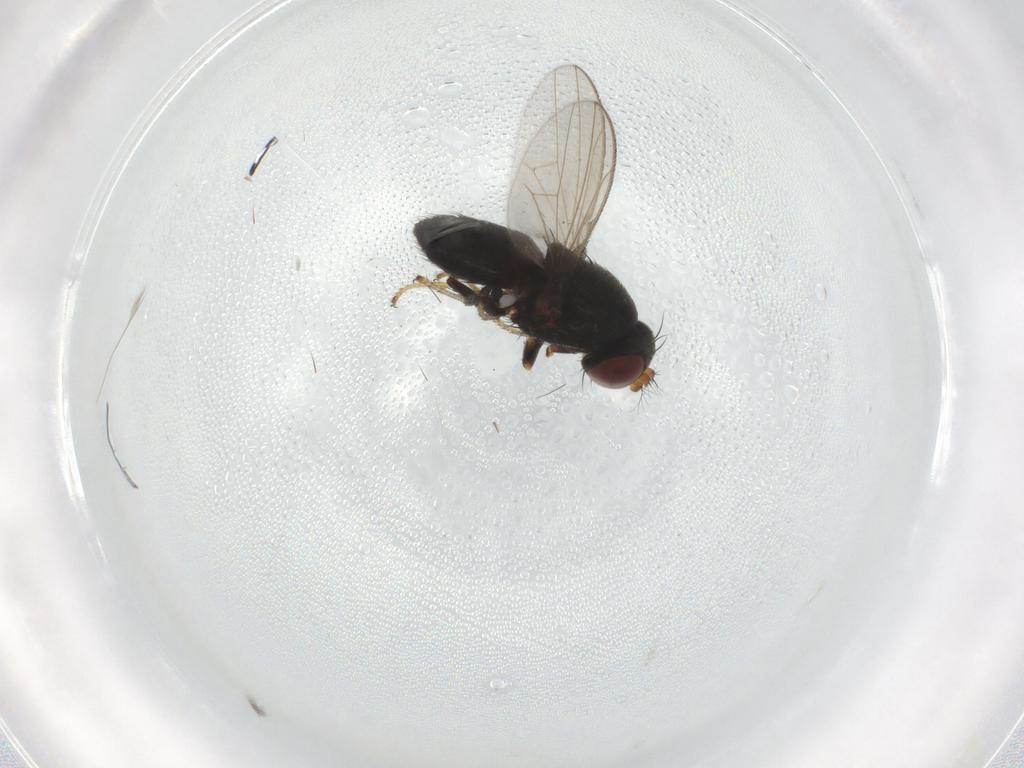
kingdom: Animalia
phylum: Arthropoda
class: Insecta
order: Diptera
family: Ephydridae
